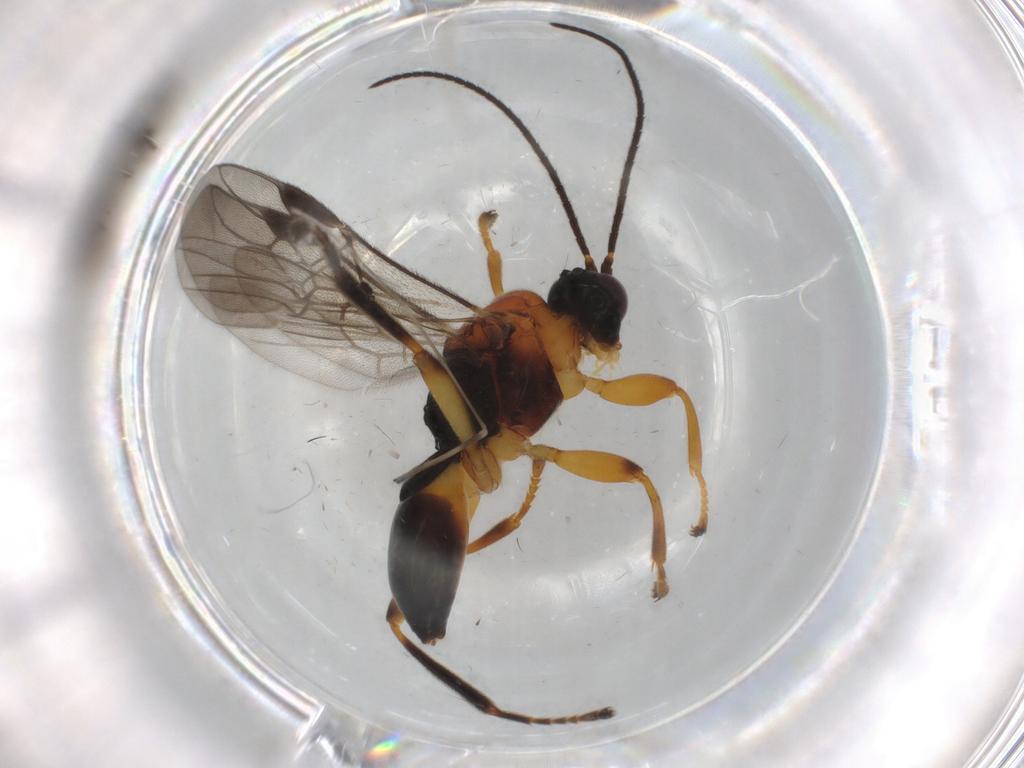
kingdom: Animalia
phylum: Arthropoda
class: Insecta
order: Hymenoptera
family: Braconidae
